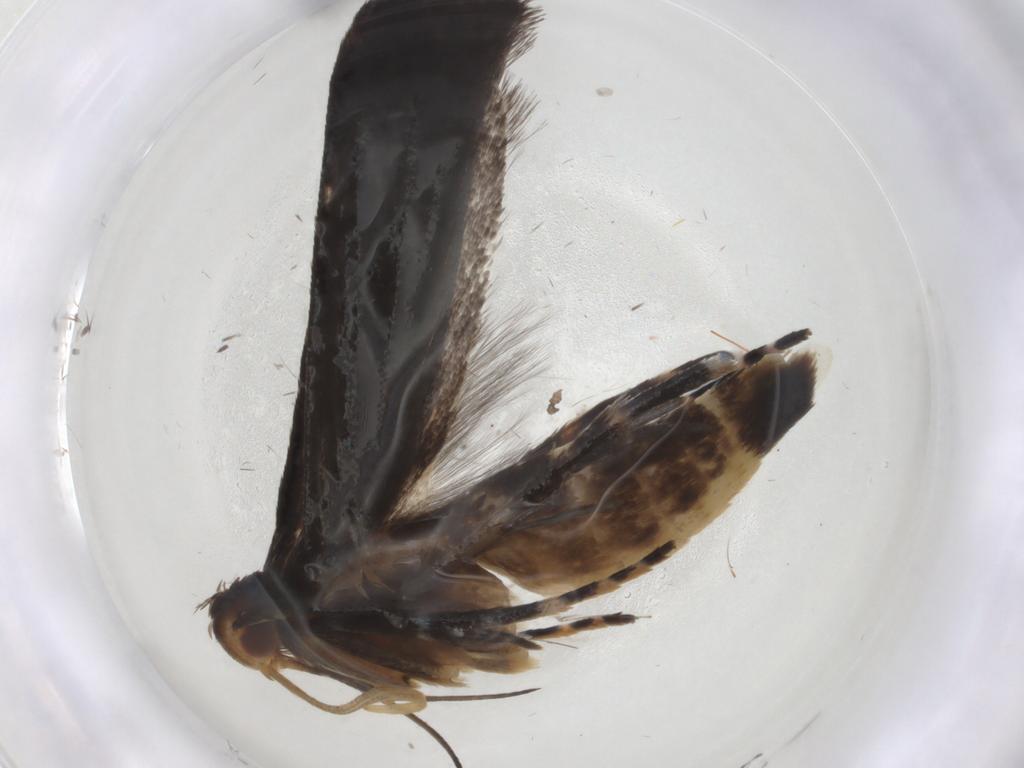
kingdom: Animalia
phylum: Arthropoda
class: Insecta
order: Lepidoptera
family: Gelechiidae
